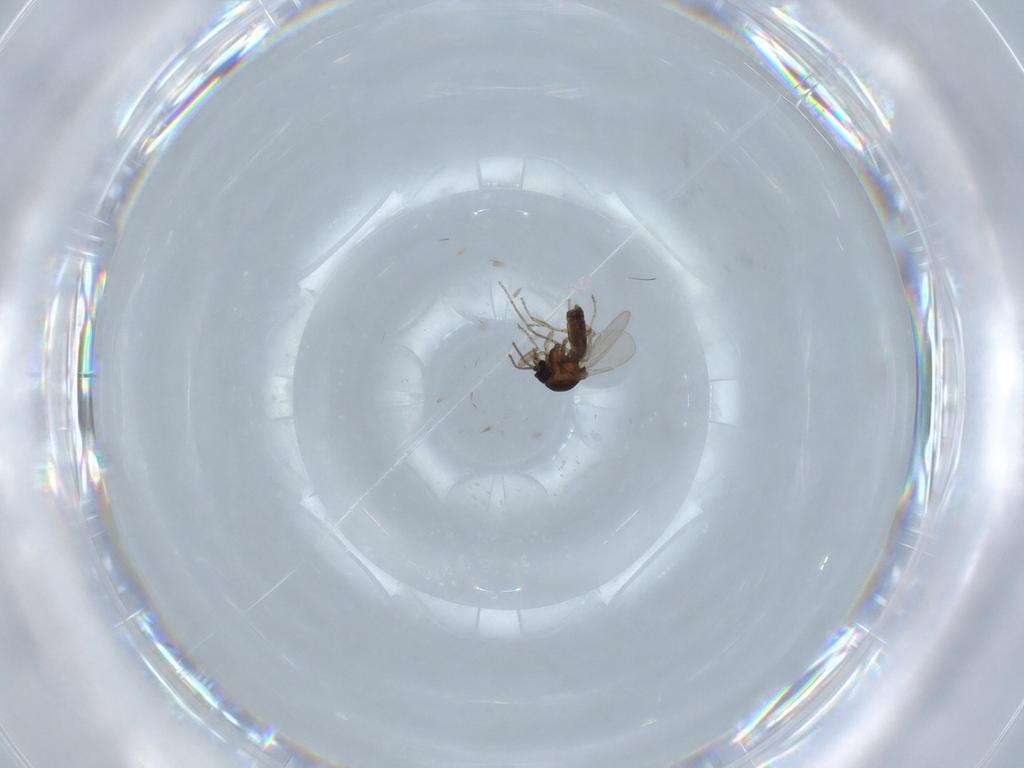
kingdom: Animalia
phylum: Arthropoda
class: Insecta
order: Diptera
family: Ceratopogonidae
